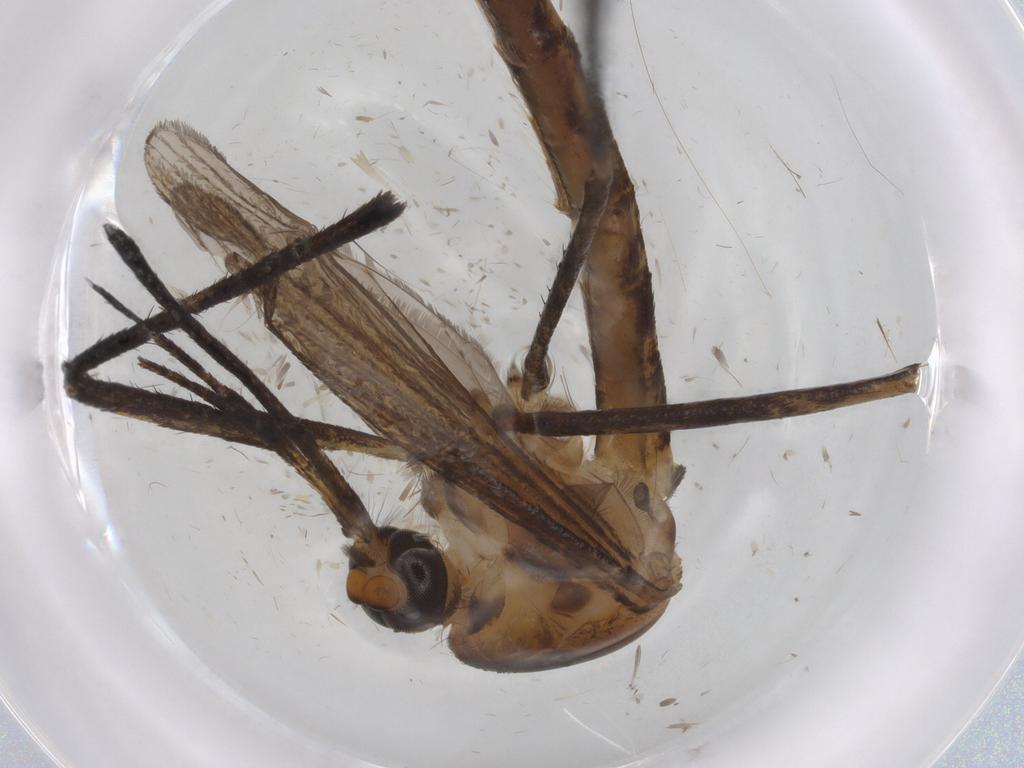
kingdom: Animalia
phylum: Arthropoda
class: Insecta
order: Diptera
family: Ceratopogonidae
